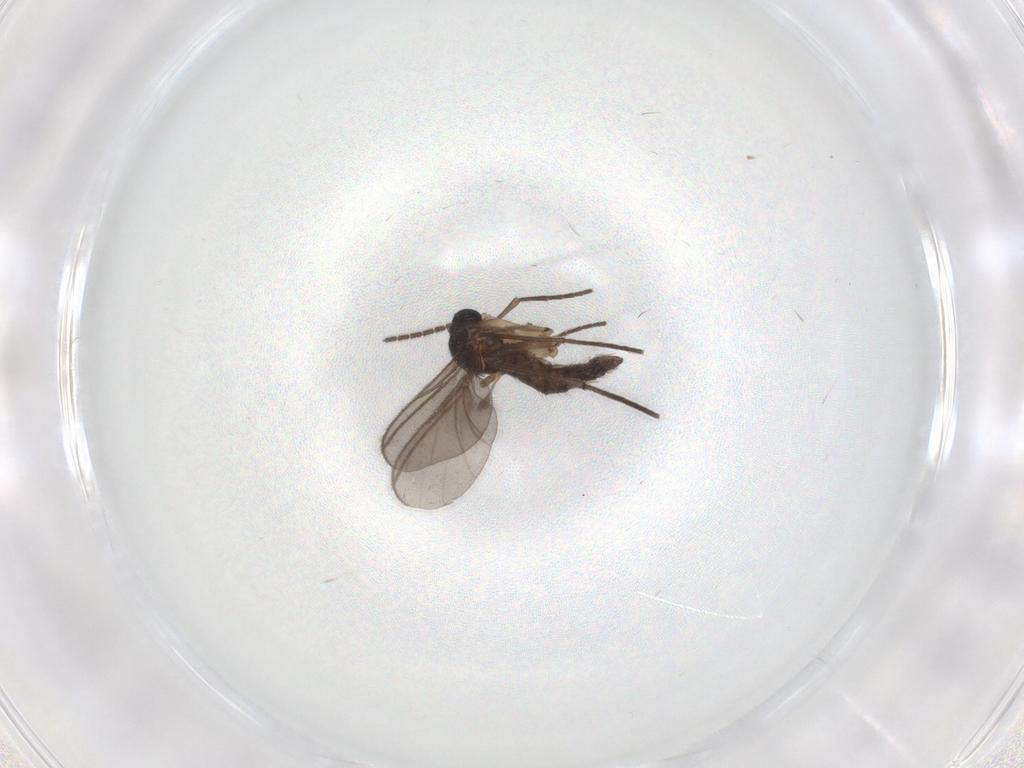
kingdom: Animalia
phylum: Arthropoda
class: Insecta
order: Diptera
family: Sciaridae
